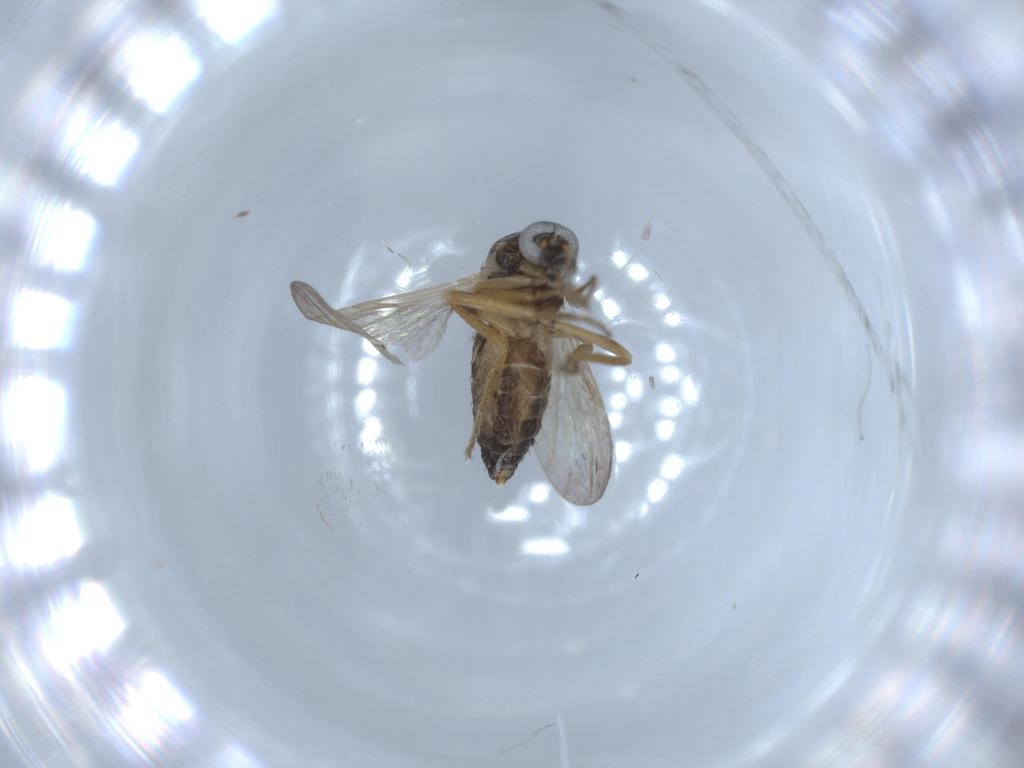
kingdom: Animalia
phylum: Arthropoda
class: Insecta
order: Diptera
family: Ceratopogonidae
